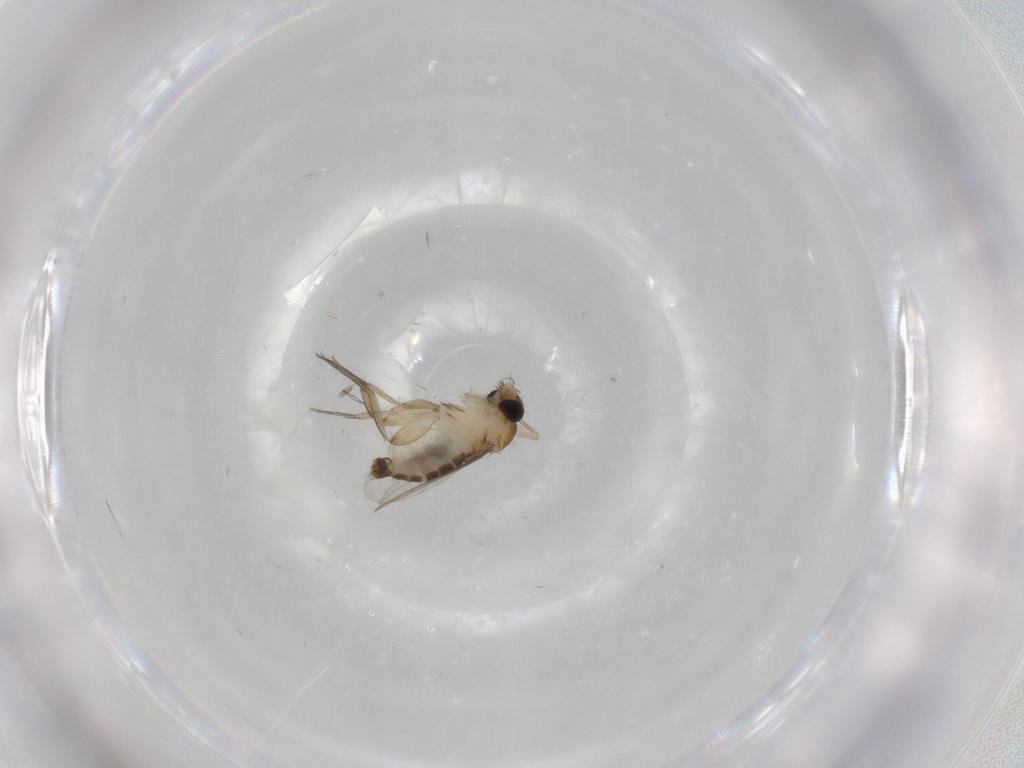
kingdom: Animalia
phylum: Arthropoda
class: Insecta
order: Diptera
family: Phoridae
